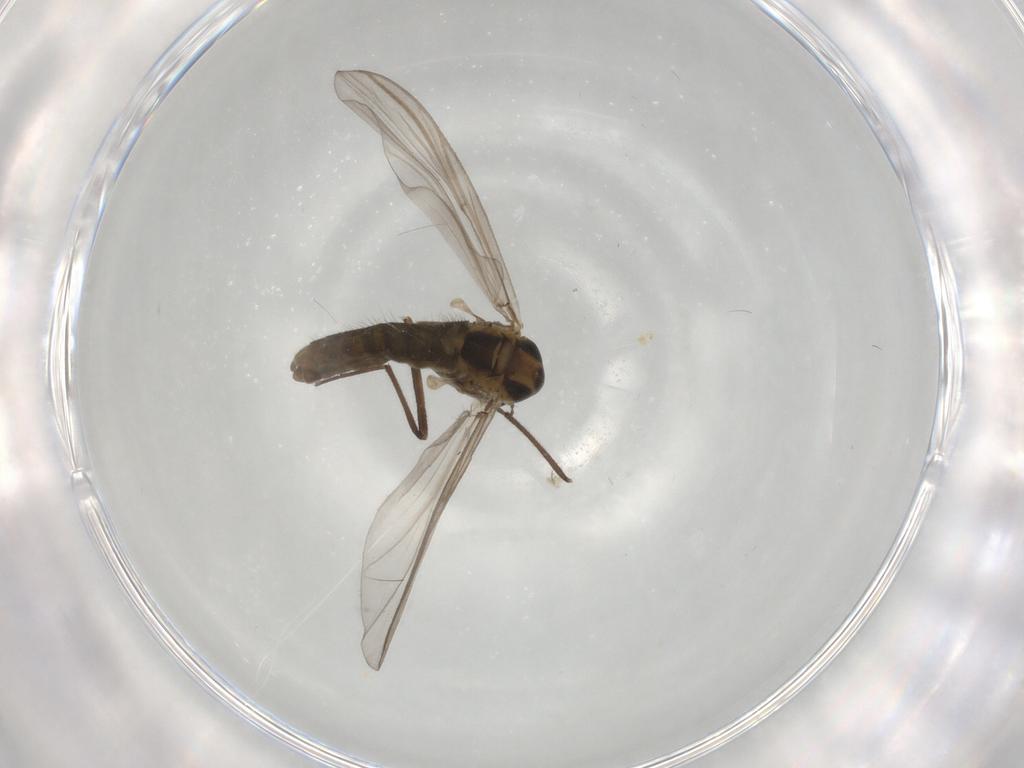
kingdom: Animalia
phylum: Arthropoda
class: Insecta
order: Diptera
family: Chironomidae
